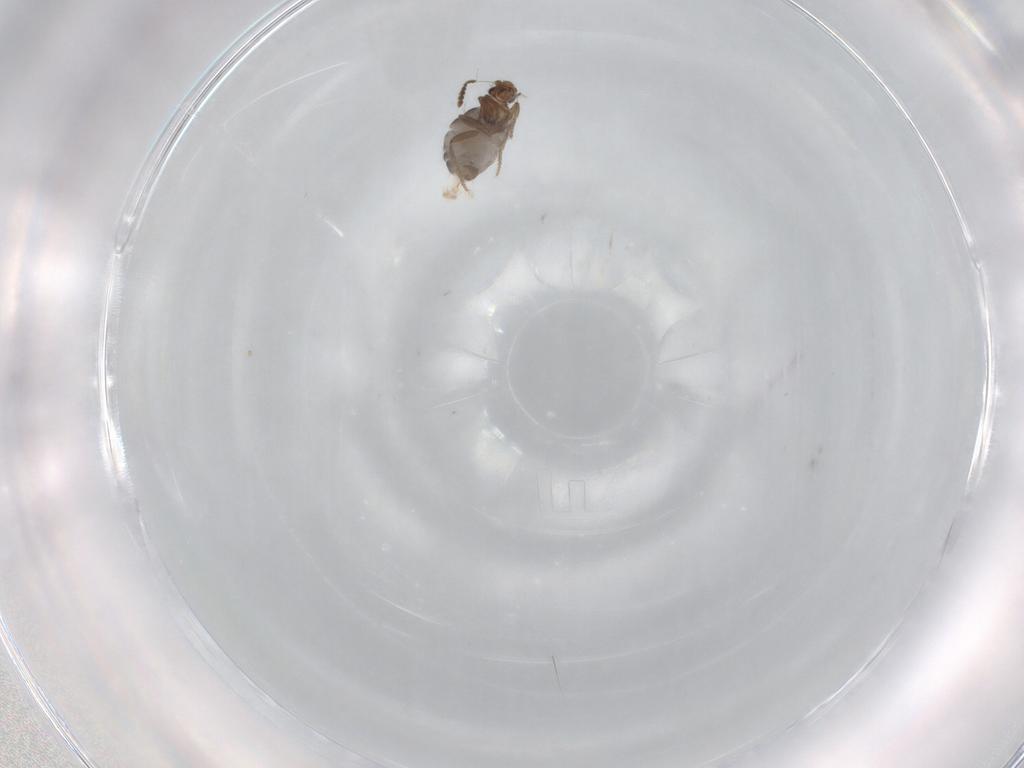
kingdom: Animalia
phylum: Arthropoda
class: Insecta
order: Diptera
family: Phoridae
